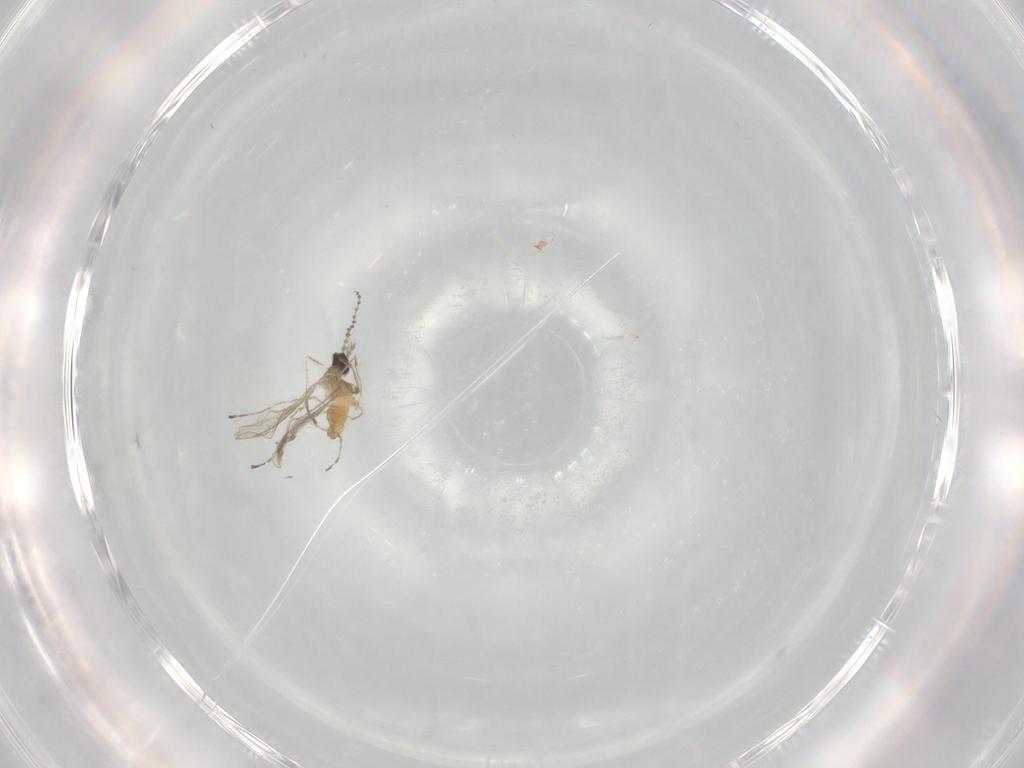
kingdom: Animalia
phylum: Arthropoda
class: Insecta
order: Diptera
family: Cecidomyiidae
